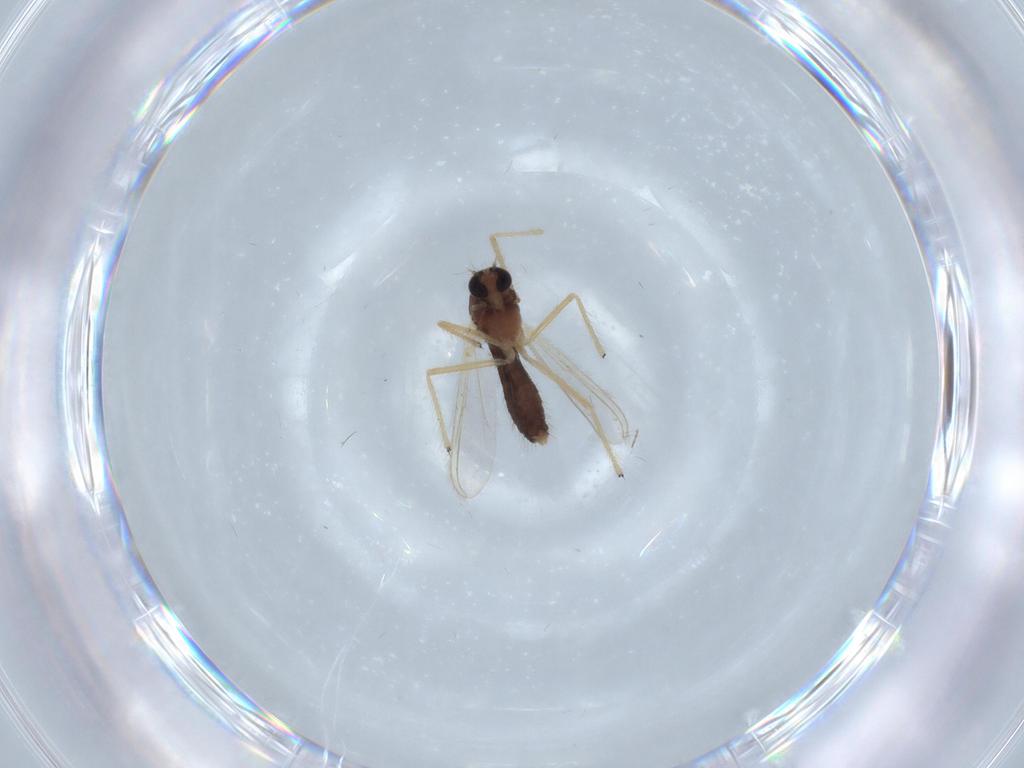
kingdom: Animalia
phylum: Arthropoda
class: Insecta
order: Diptera
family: Chironomidae
